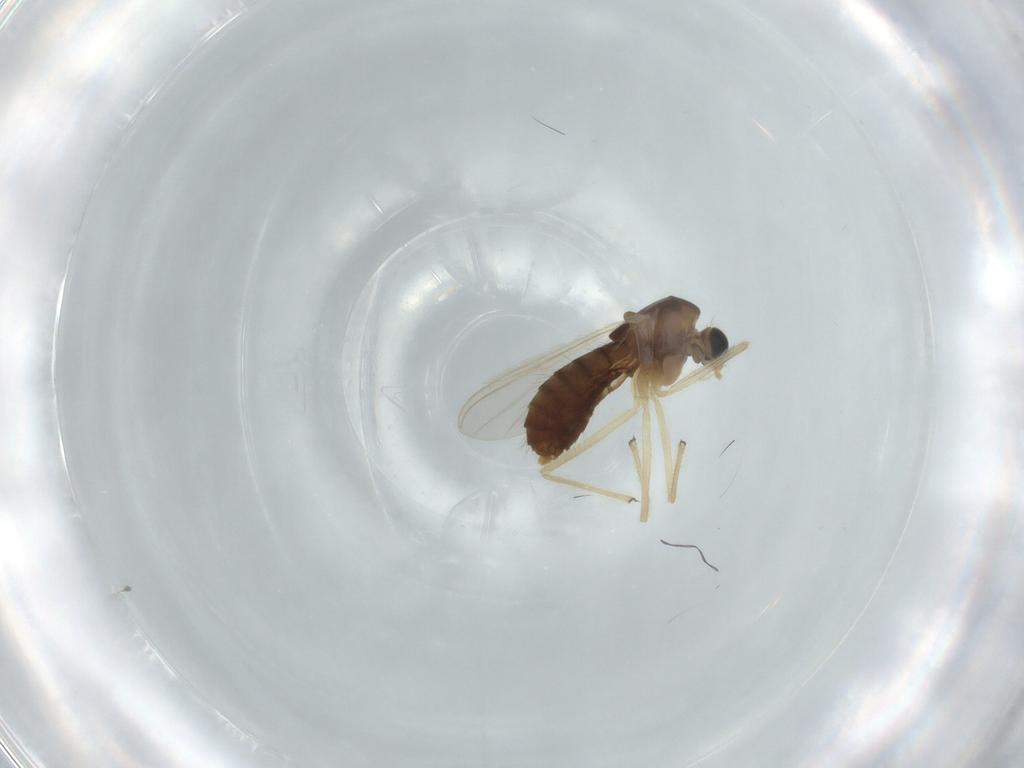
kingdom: Animalia
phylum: Arthropoda
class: Insecta
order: Diptera
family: Chironomidae
